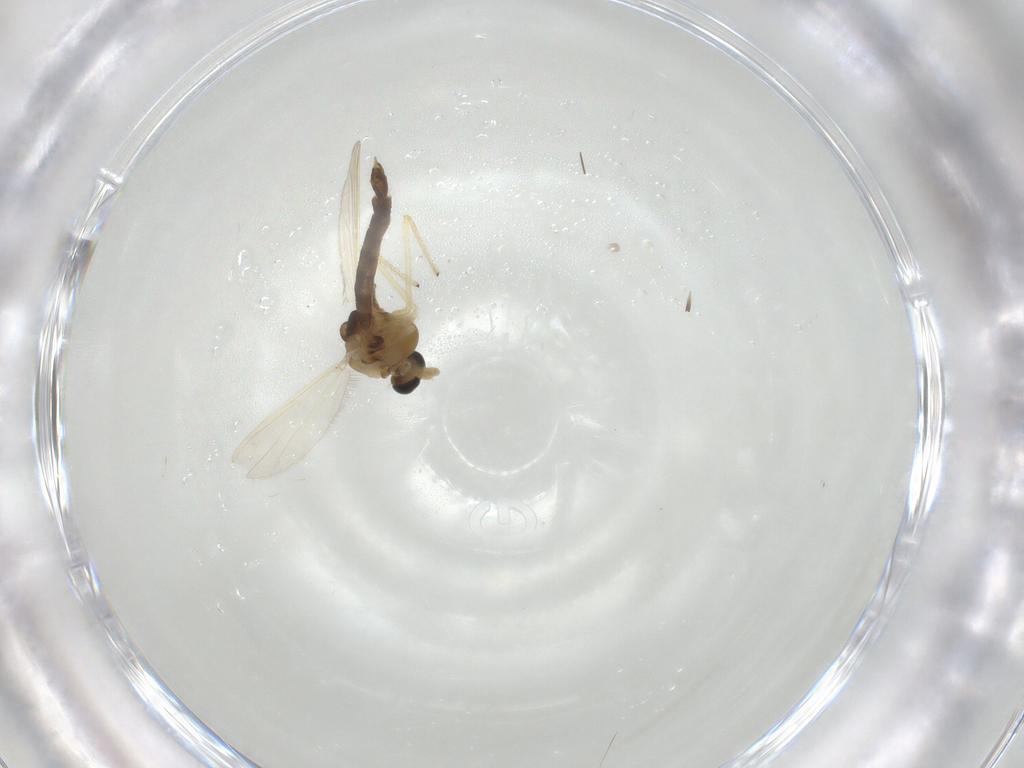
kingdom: Animalia
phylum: Arthropoda
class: Insecta
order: Diptera
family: Chironomidae
